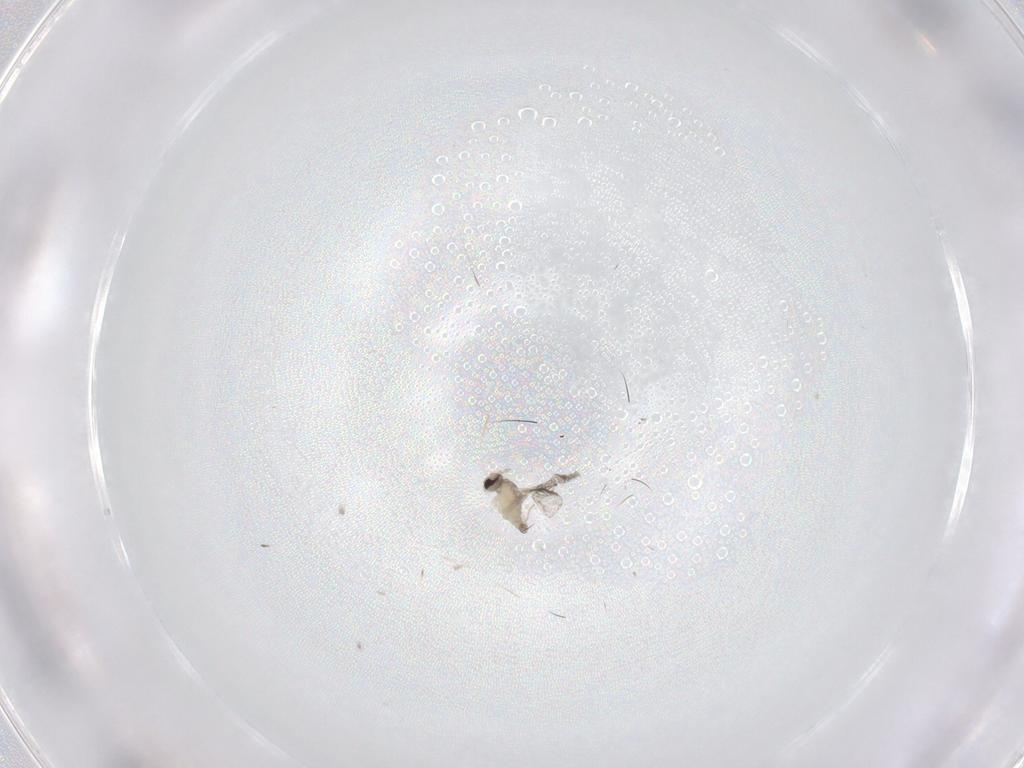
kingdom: Animalia
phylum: Arthropoda
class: Insecta
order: Diptera
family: Cecidomyiidae
